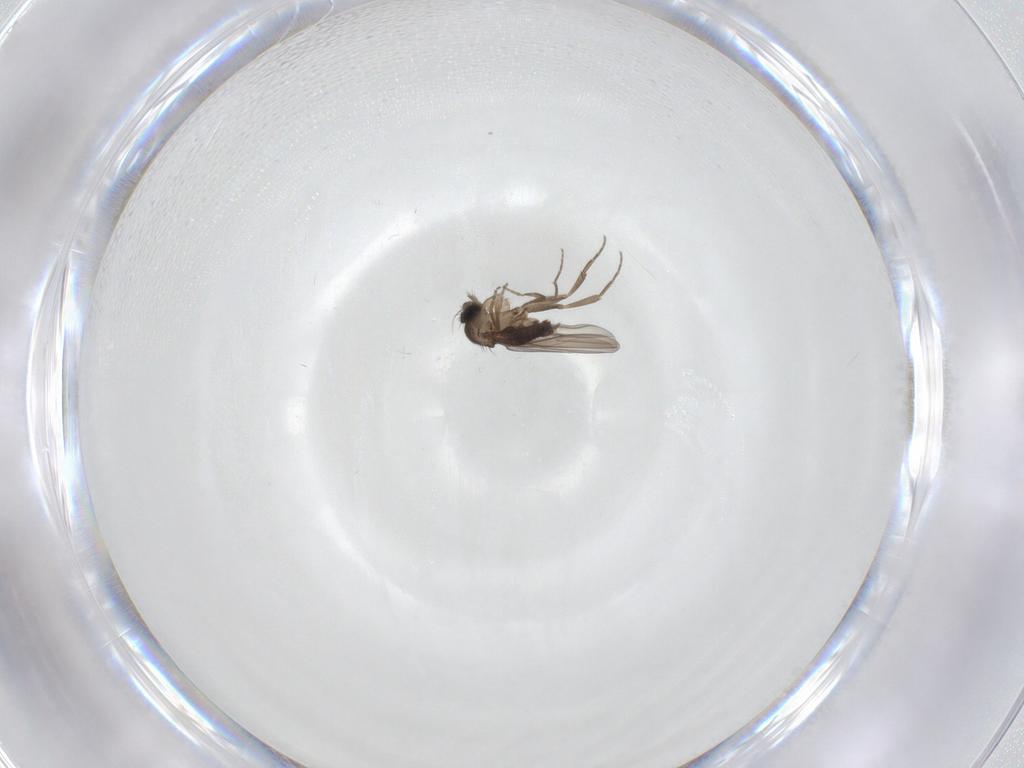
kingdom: Animalia
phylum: Arthropoda
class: Insecta
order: Diptera
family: Phoridae
